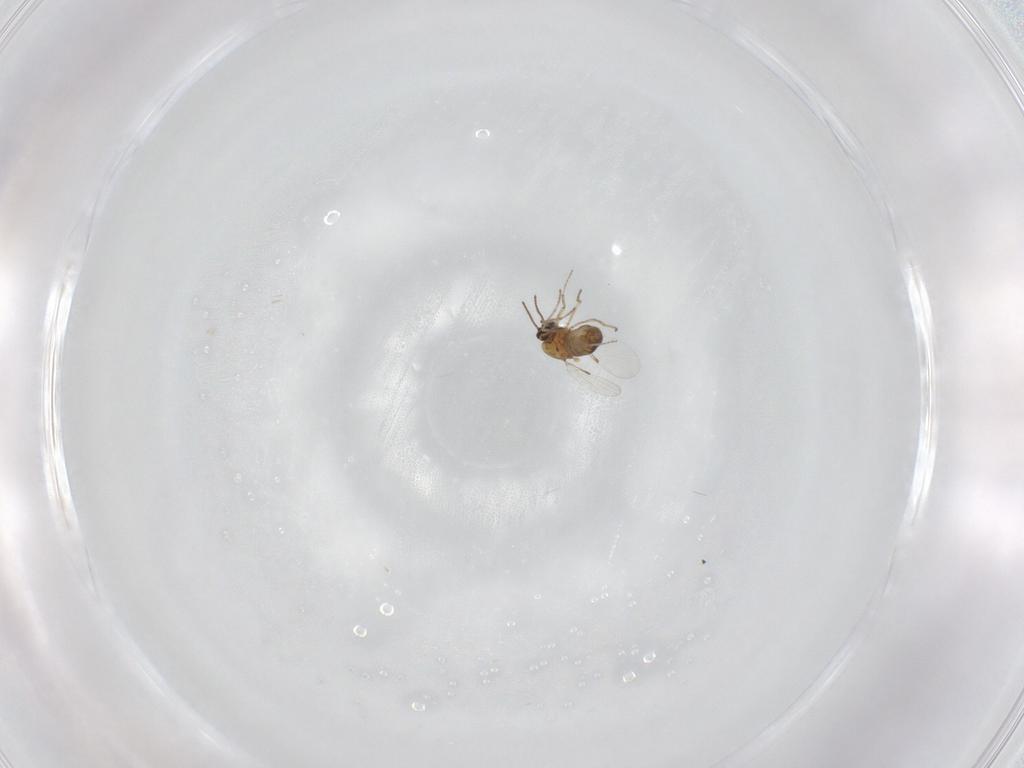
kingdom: Animalia
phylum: Arthropoda
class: Insecta
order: Diptera
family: Ceratopogonidae
